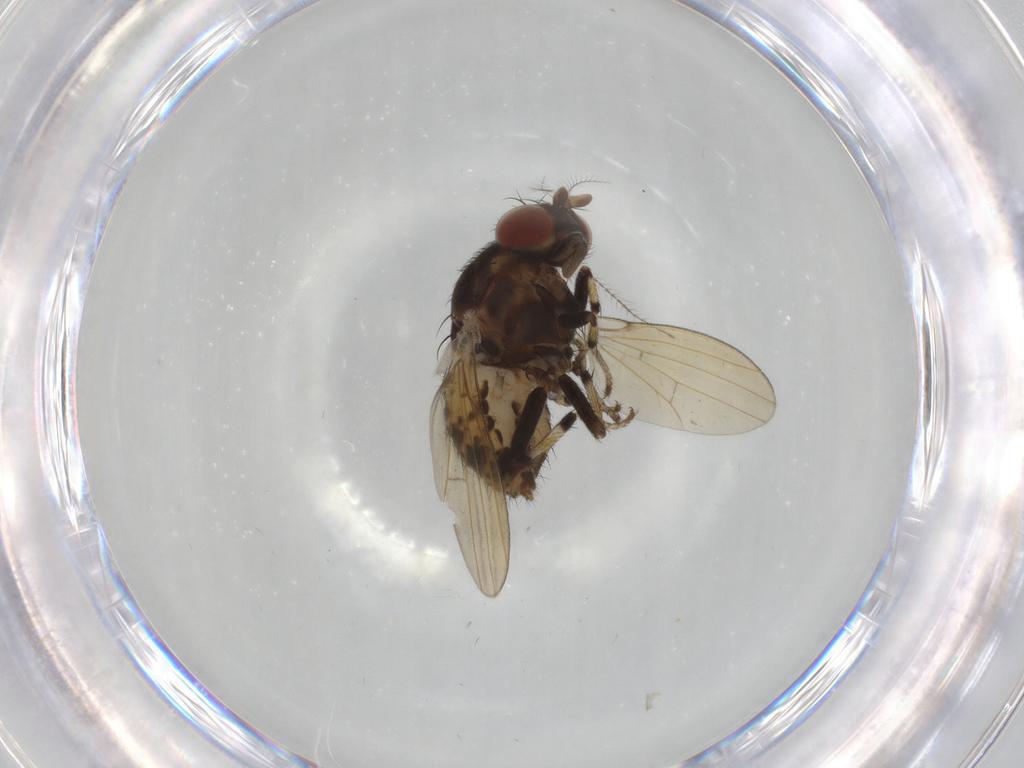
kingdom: Animalia
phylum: Arthropoda
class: Insecta
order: Diptera
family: Ceratopogonidae
